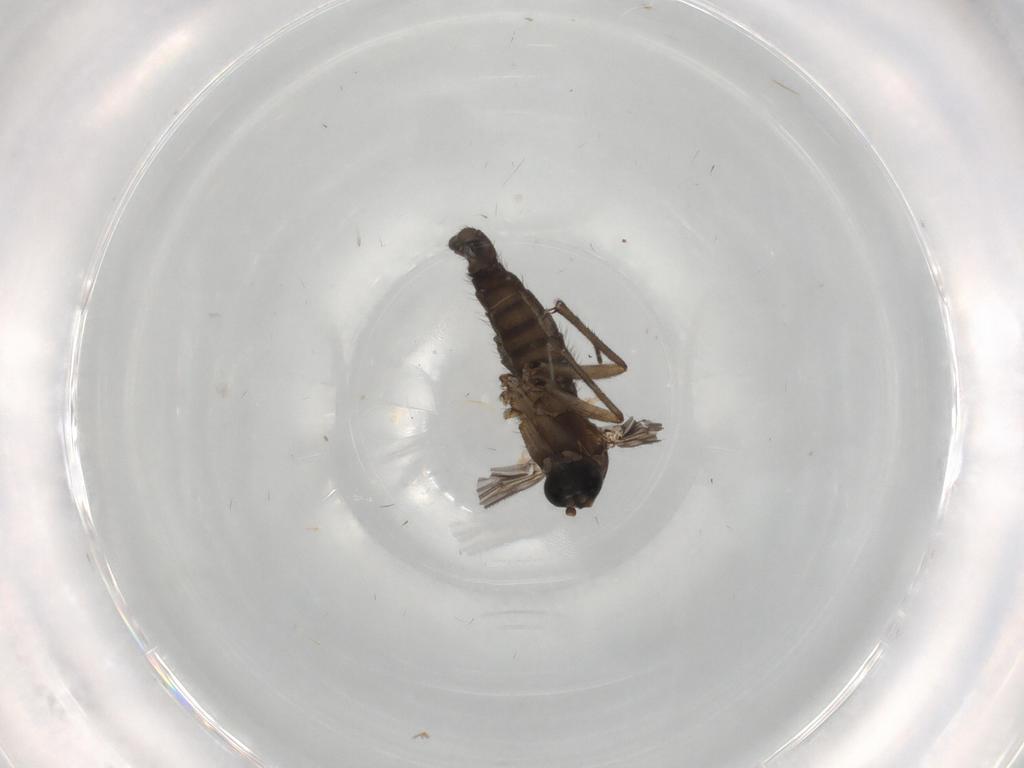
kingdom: Animalia
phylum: Arthropoda
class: Insecta
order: Diptera
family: Sciaridae
